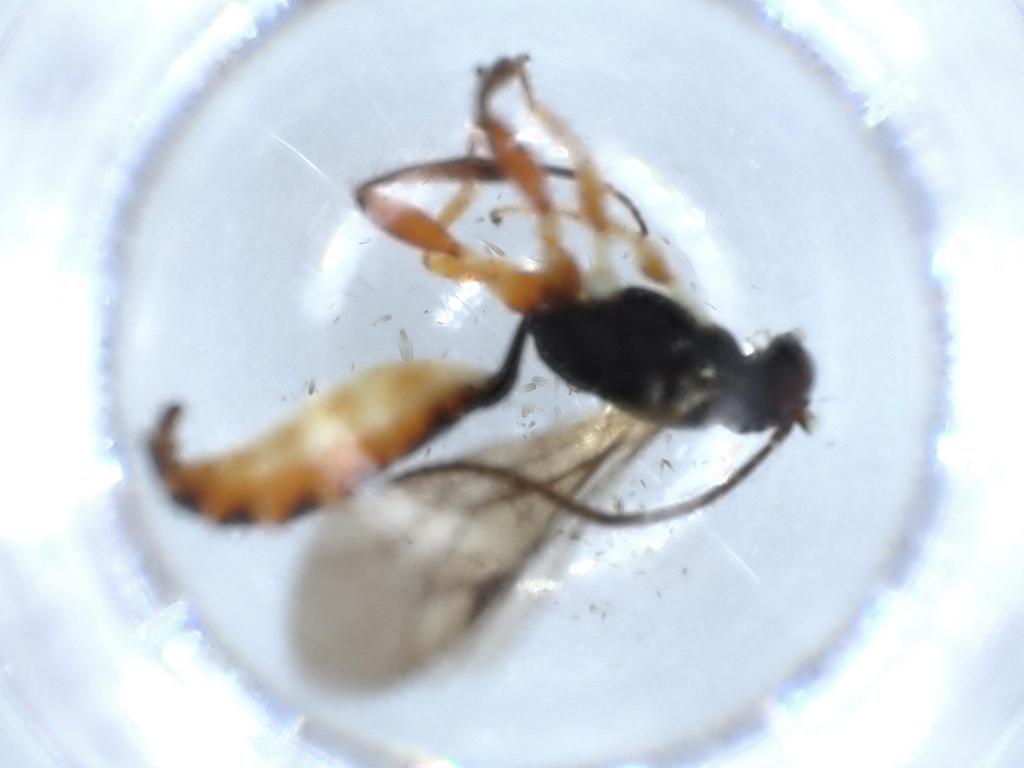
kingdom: Animalia
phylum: Arthropoda
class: Insecta
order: Hymenoptera
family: Ichneumonidae
